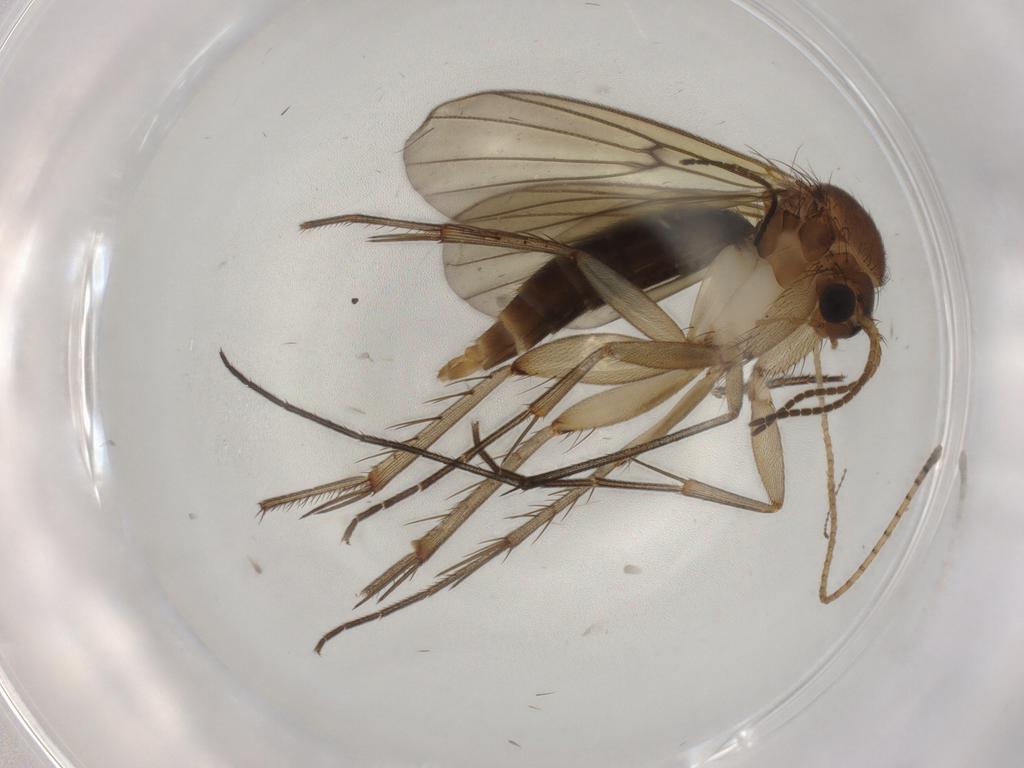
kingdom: Animalia
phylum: Arthropoda
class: Insecta
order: Diptera
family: Mycetophilidae
